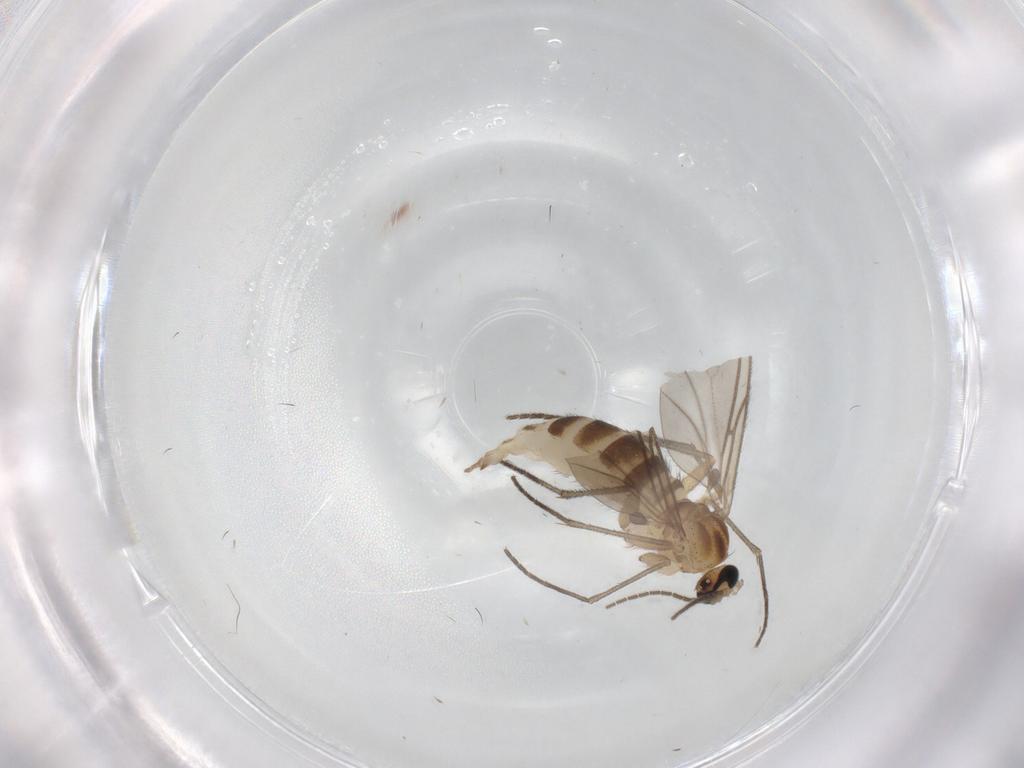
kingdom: Animalia
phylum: Arthropoda
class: Insecta
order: Diptera
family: Sciaridae
